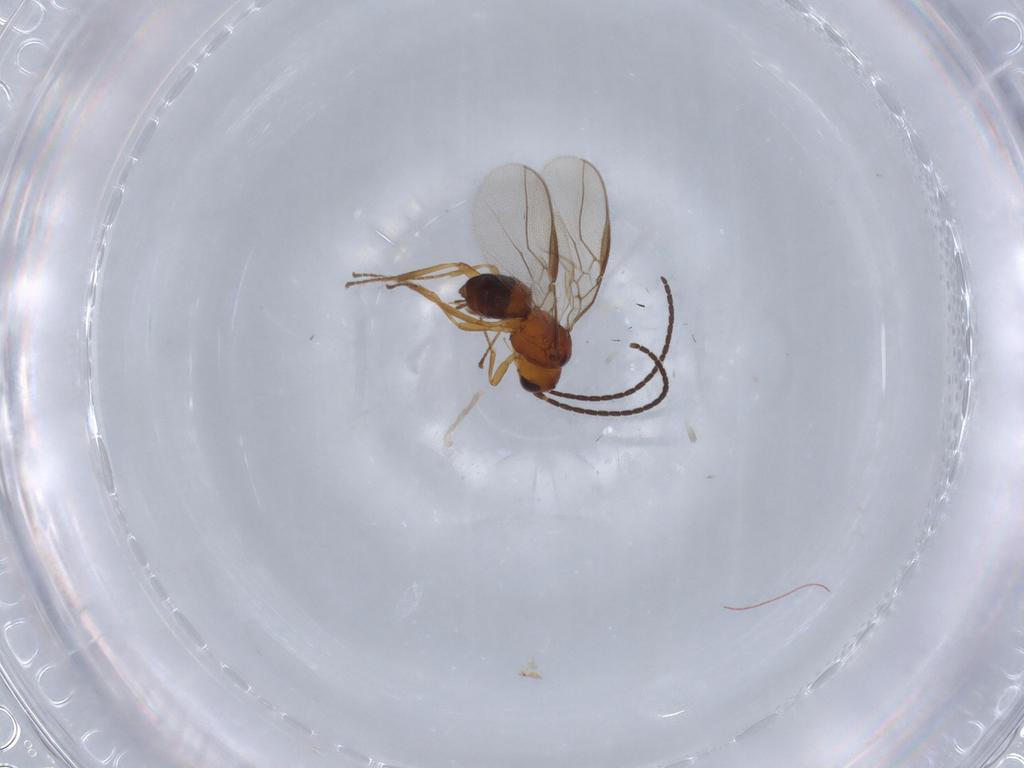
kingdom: Animalia
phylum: Arthropoda
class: Insecta
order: Hymenoptera
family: Braconidae
